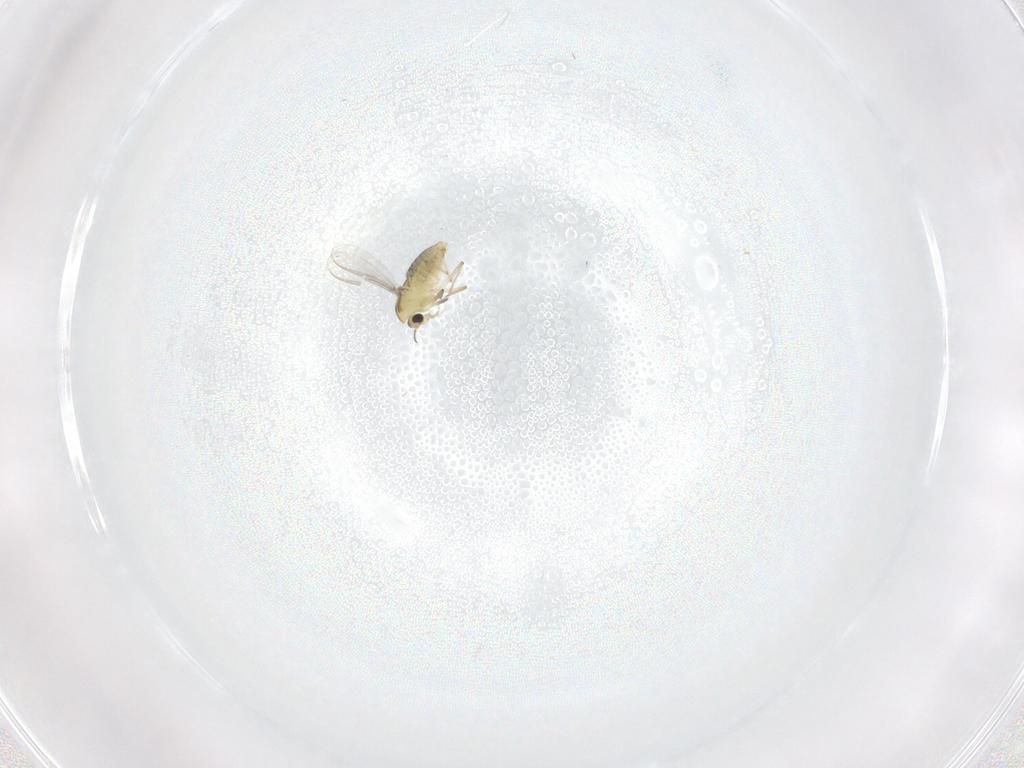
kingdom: Animalia
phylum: Arthropoda
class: Insecta
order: Diptera
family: Chironomidae
